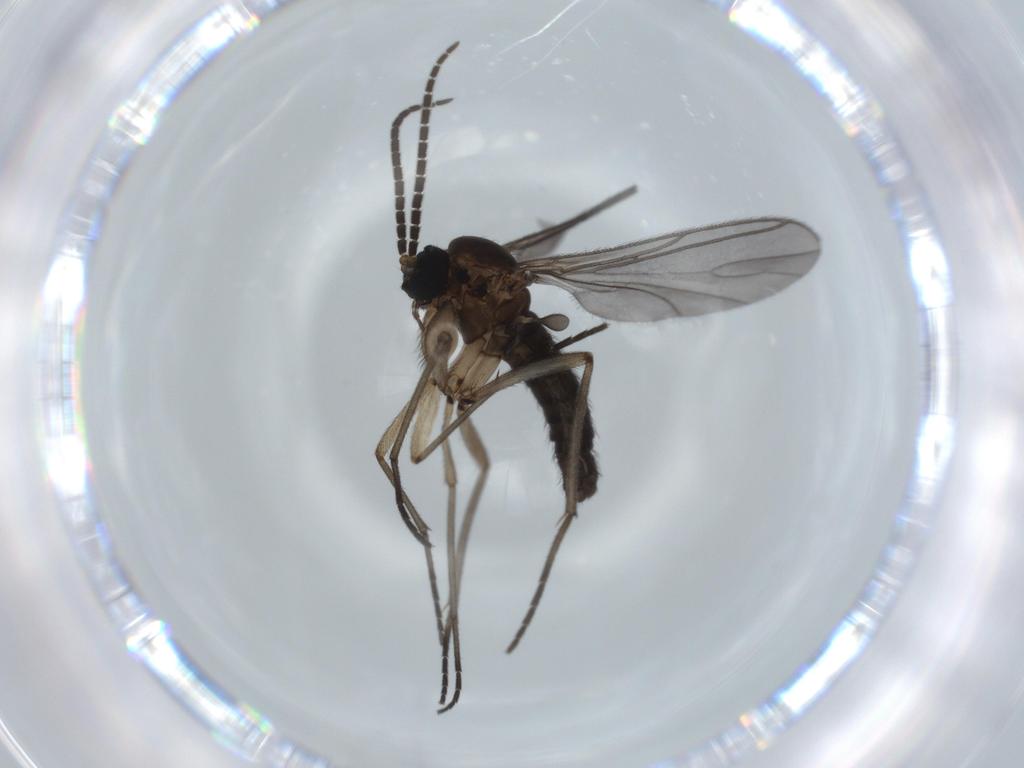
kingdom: Animalia
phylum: Arthropoda
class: Insecta
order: Diptera
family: Sciaridae
